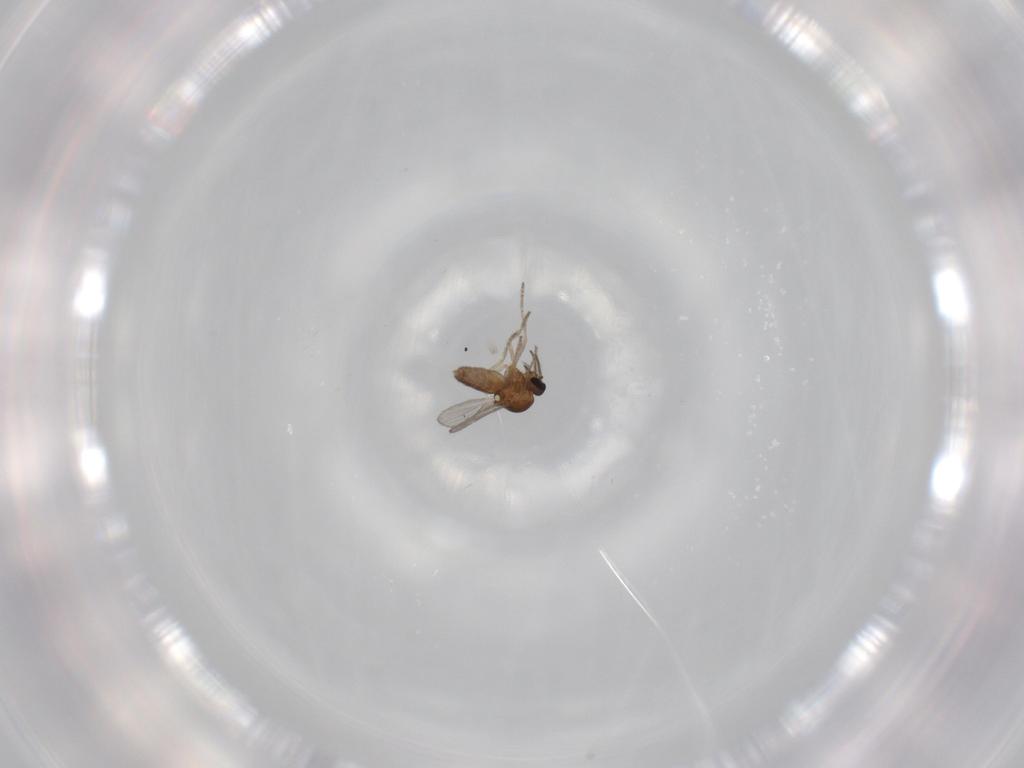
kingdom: Animalia
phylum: Arthropoda
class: Insecta
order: Diptera
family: Ceratopogonidae
